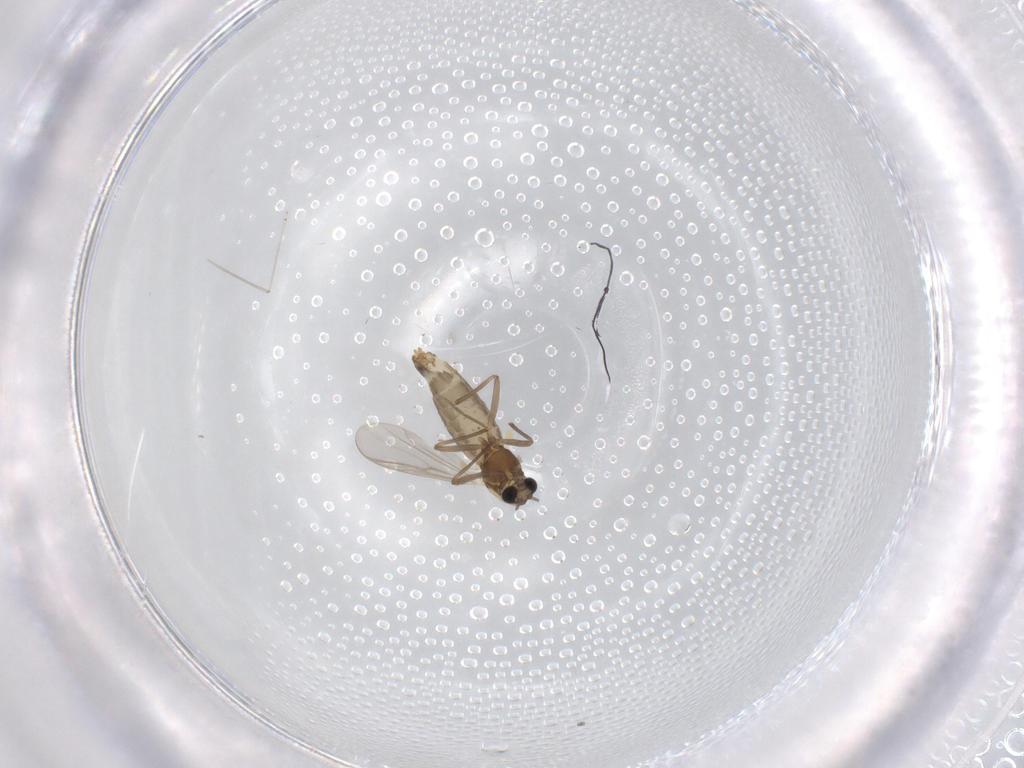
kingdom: Animalia
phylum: Arthropoda
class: Insecta
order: Diptera
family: Chironomidae
